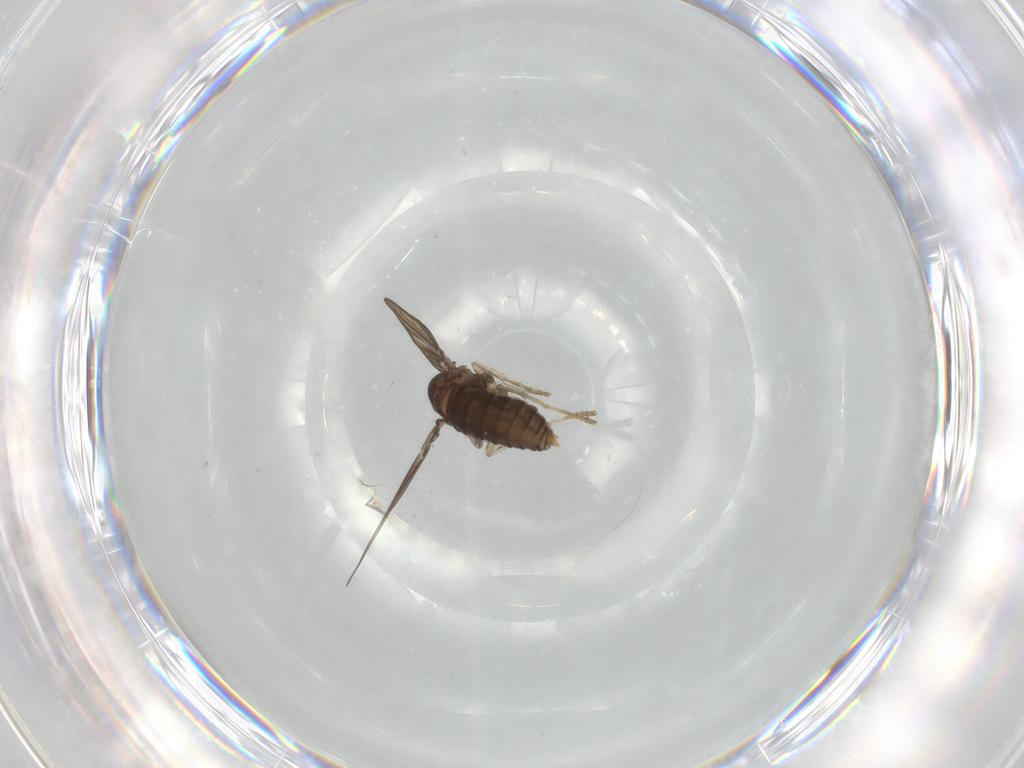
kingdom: Animalia
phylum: Arthropoda
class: Insecta
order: Diptera
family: Psychodidae
